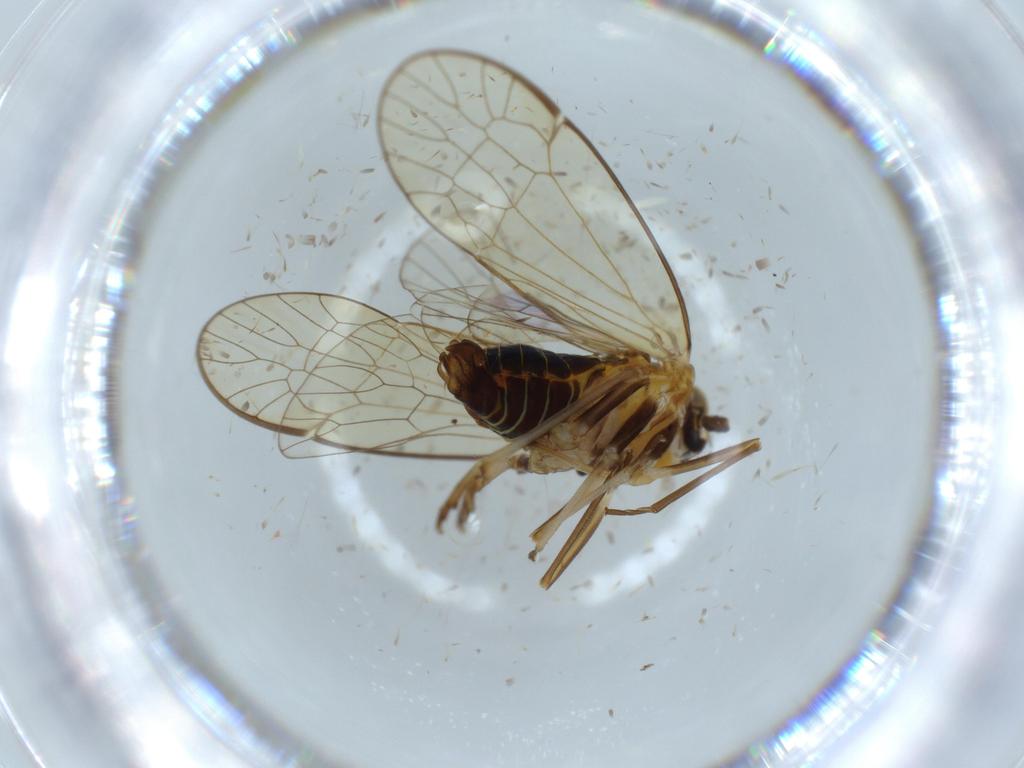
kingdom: Animalia
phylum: Arthropoda
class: Insecta
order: Hemiptera
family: Kinnaridae
